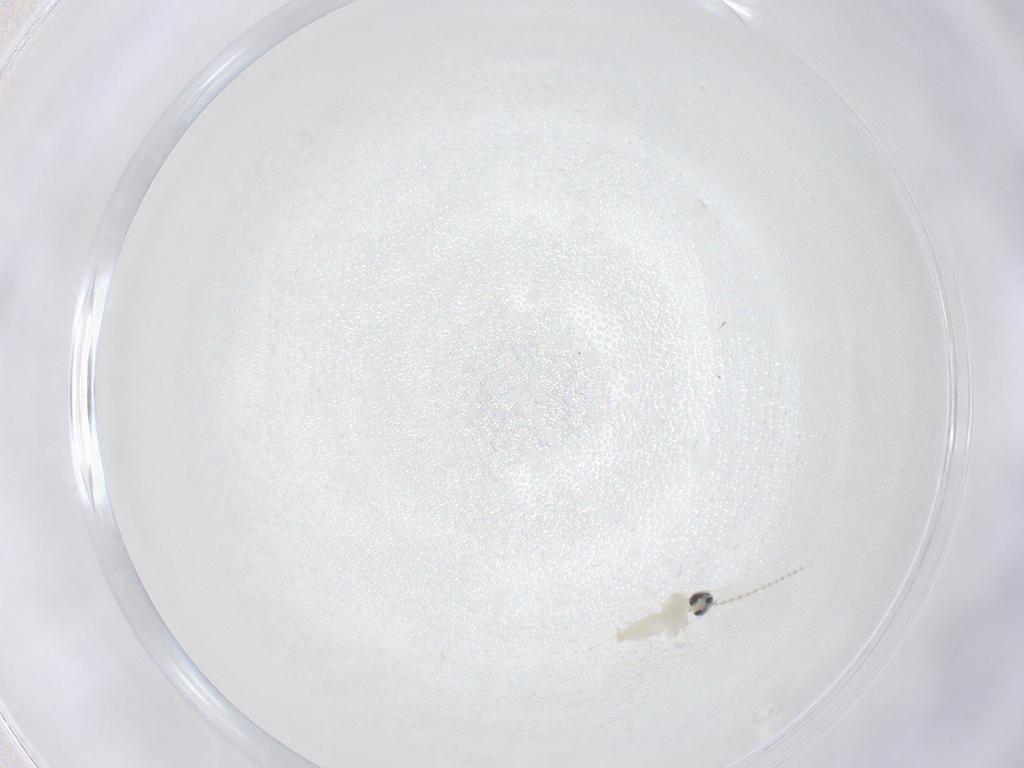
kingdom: Animalia
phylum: Arthropoda
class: Insecta
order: Diptera
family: Sciaridae
